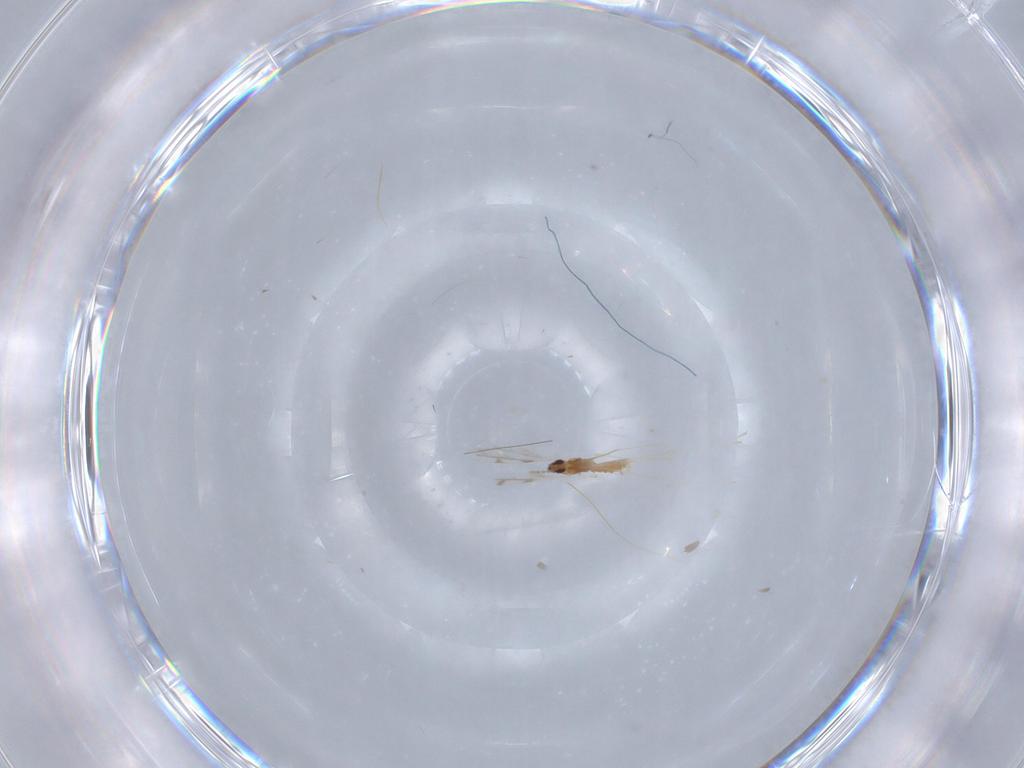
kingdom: Animalia
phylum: Arthropoda
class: Insecta
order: Diptera
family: Cecidomyiidae
